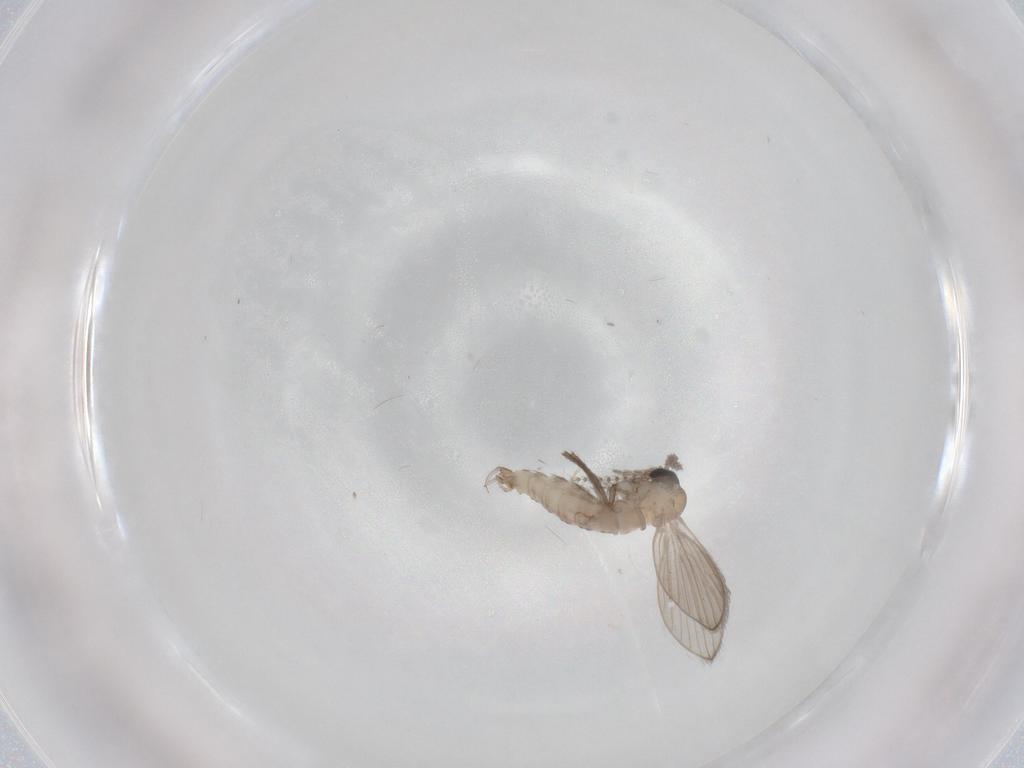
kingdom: Animalia
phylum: Arthropoda
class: Insecta
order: Diptera
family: Psychodidae
